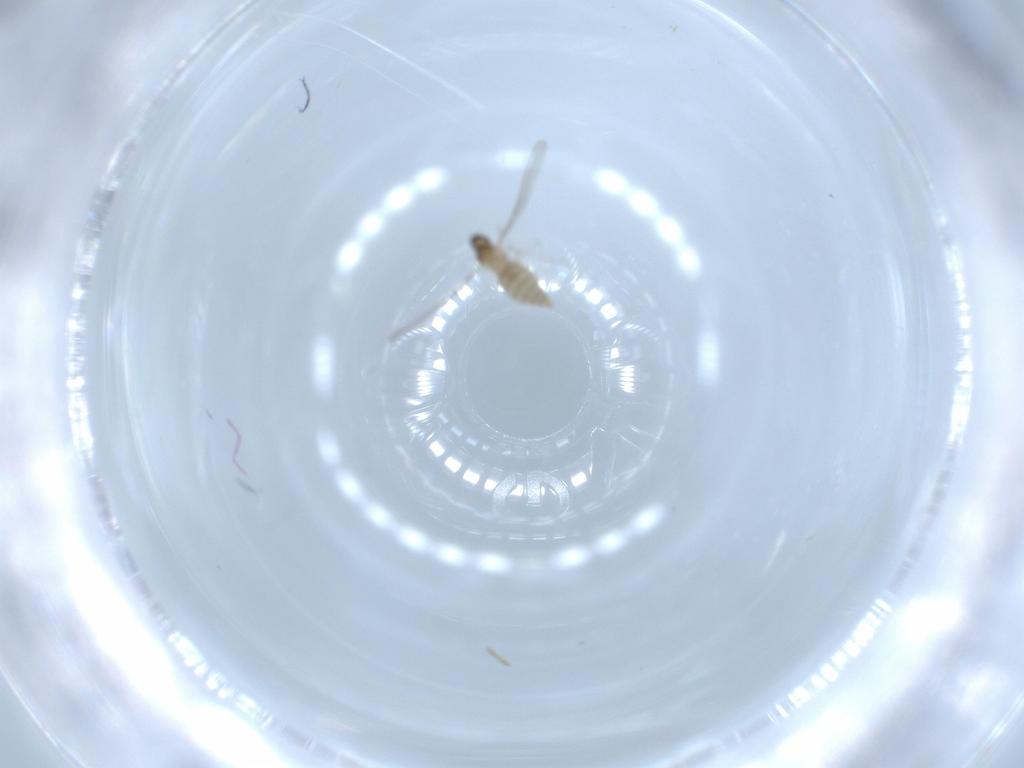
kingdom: Animalia
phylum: Arthropoda
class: Insecta
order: Diptera
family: Cecidomyiidae
